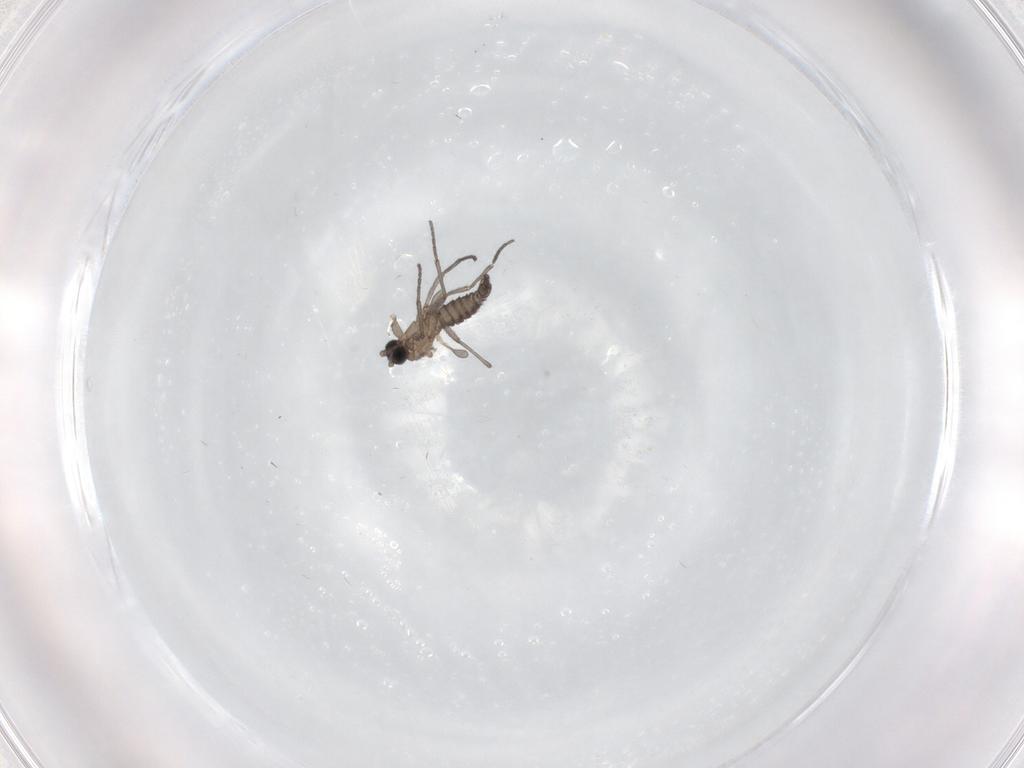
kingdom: Animalia
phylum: Arthropoda
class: Insecta
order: Diptera
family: Sciaridae
